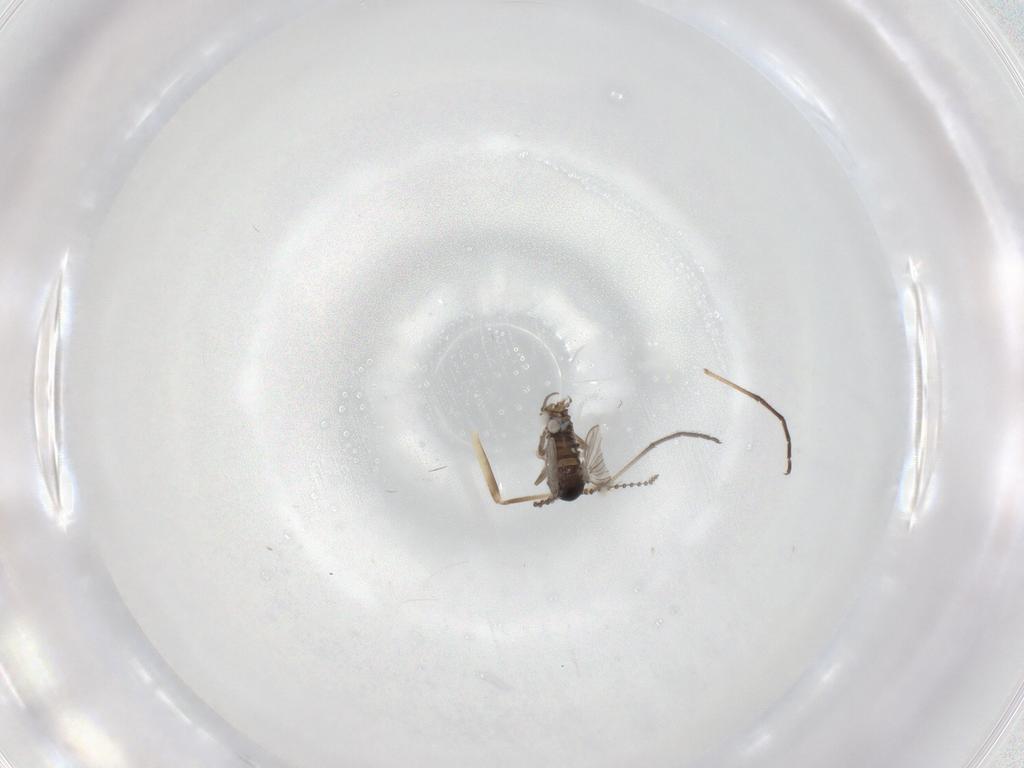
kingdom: Animalia
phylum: Arthropoda
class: Insecta
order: Diptera
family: Psychodidae
